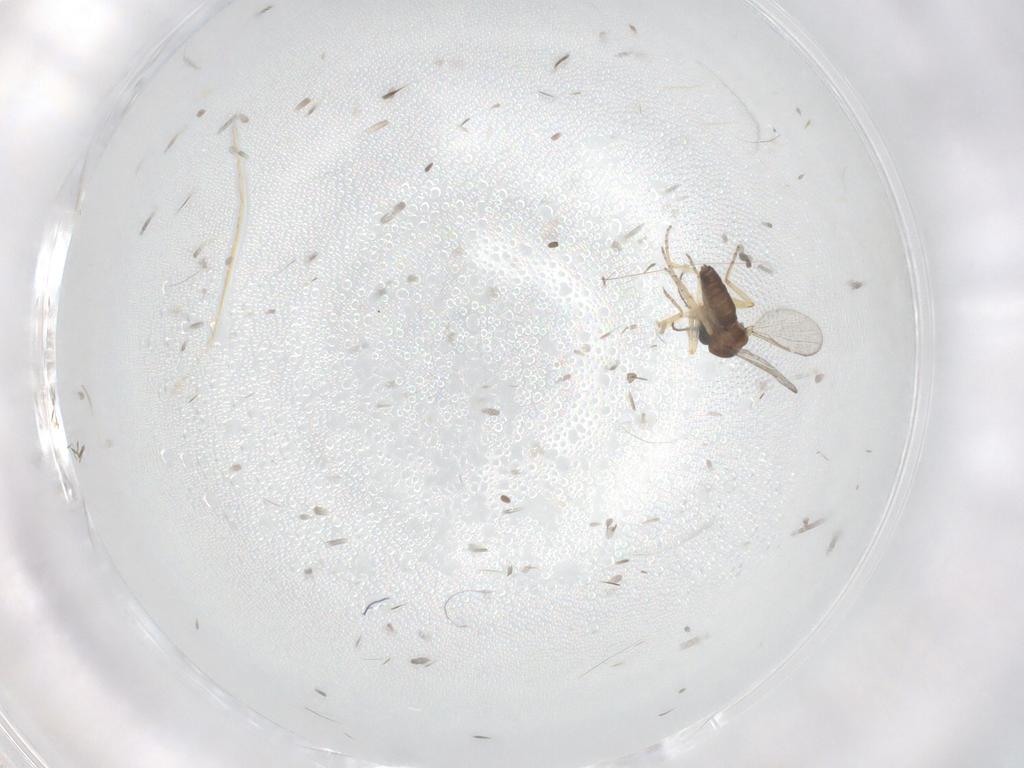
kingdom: Animalia
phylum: Arthropoda
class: Insecta
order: Diptera
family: Ceratopogonidae
